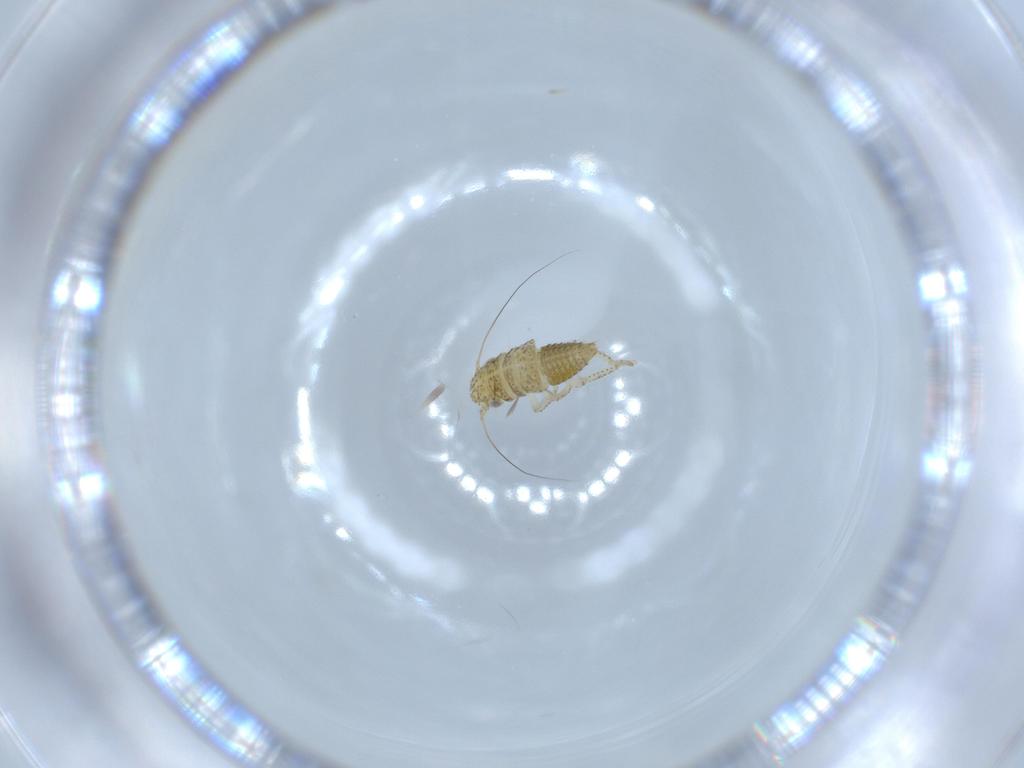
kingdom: Animalia
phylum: Arthropoda
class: Insecta
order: Hemiptera
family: Cicadellidae
